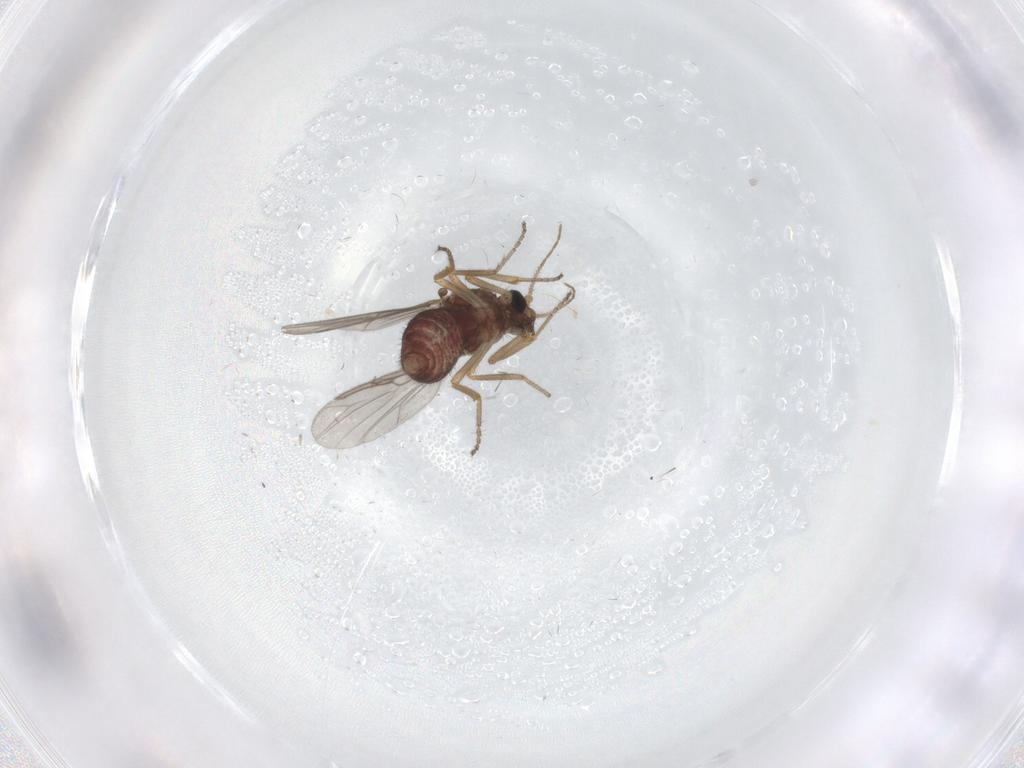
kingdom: Animalia
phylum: Arthropoda
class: Insecta
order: Diptera
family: Ceratopogonidae
